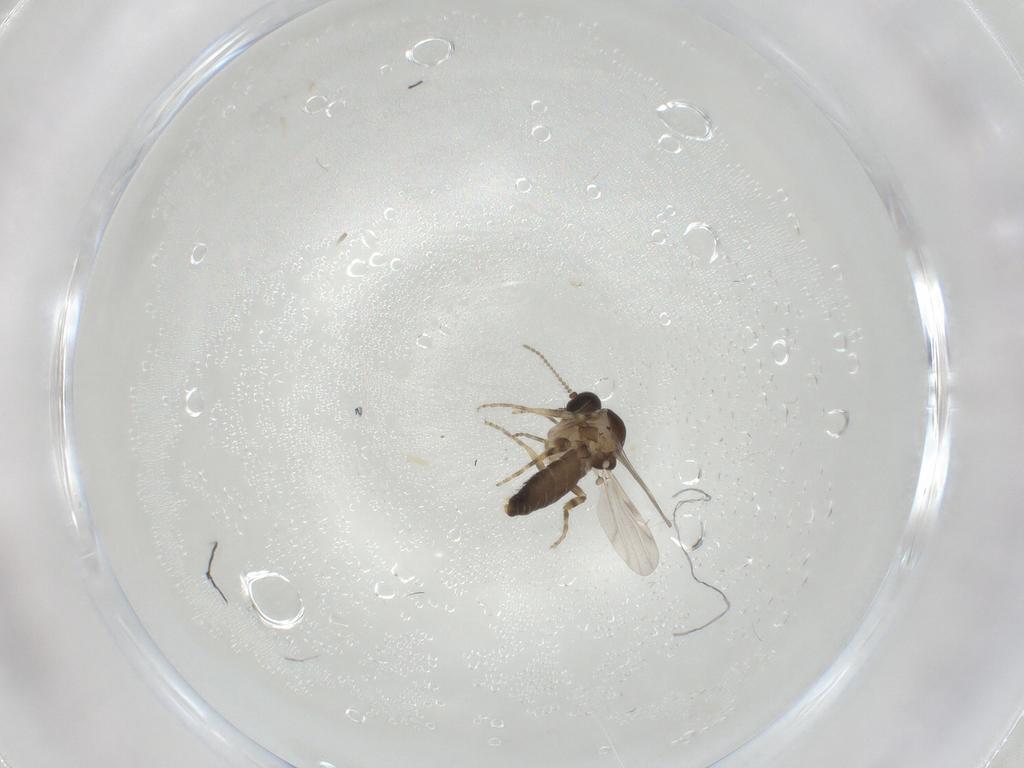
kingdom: Animalia
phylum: Arthropoda
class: Insecta
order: Diptera
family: Ceratopogonidae
